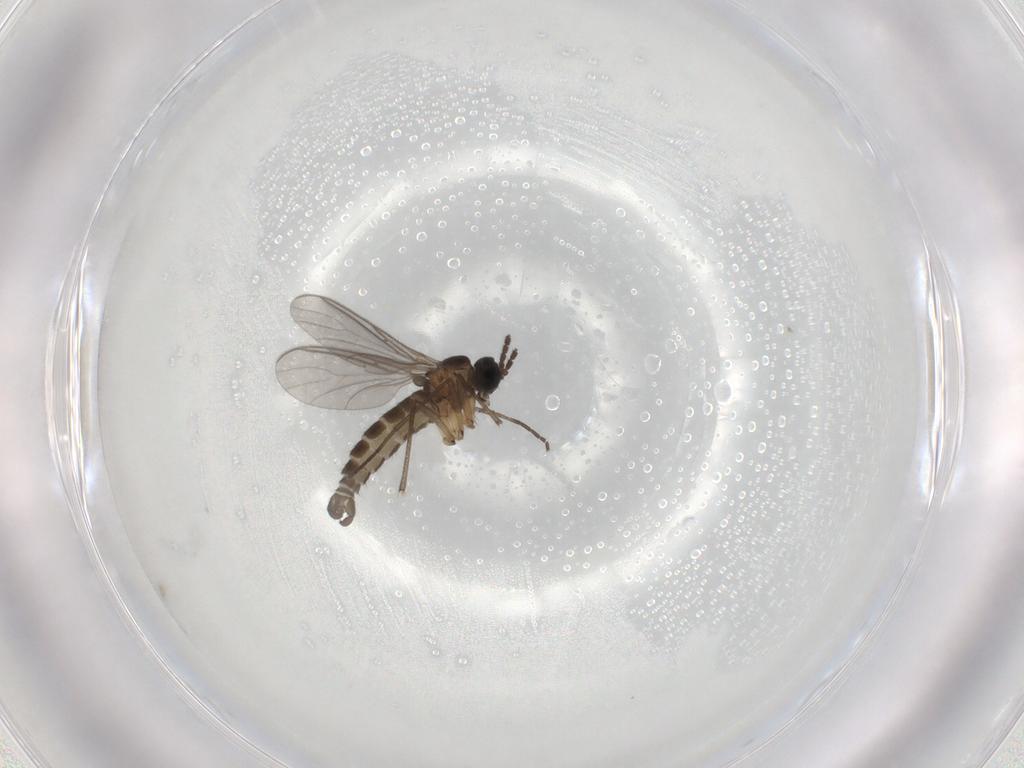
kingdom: Animalia
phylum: Arthropoda
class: Insecta
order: Diptera
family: Sciaridae
